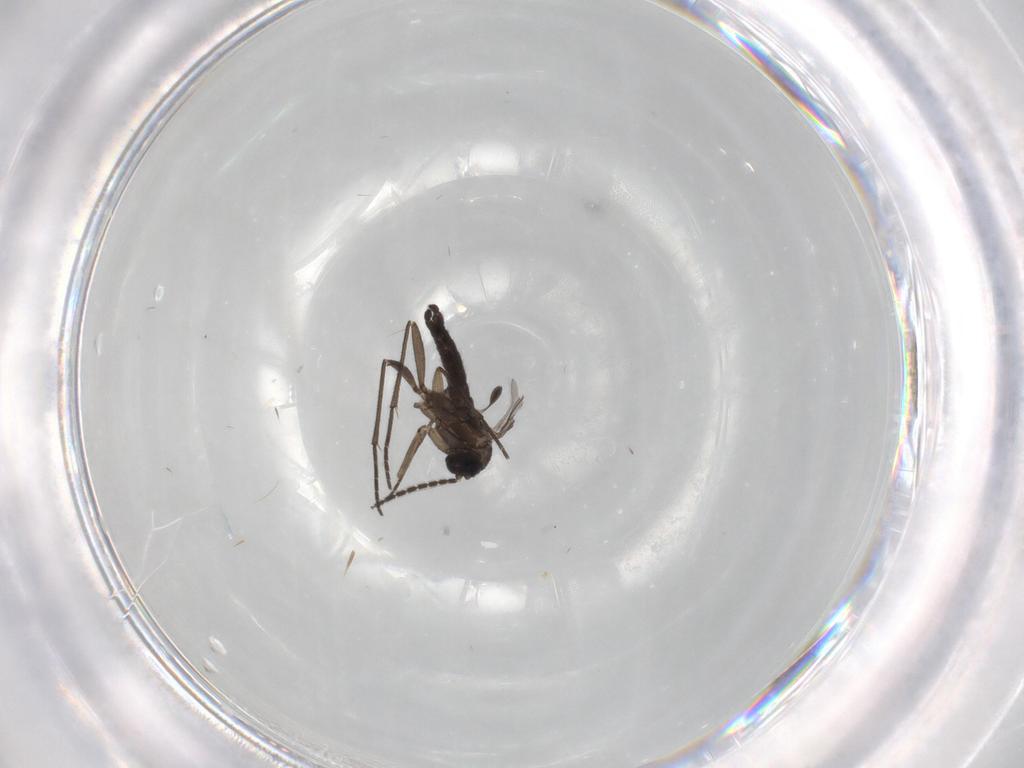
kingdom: Animalia
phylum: Arthropoda
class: Insecta
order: Diptera
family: Sciaridae
